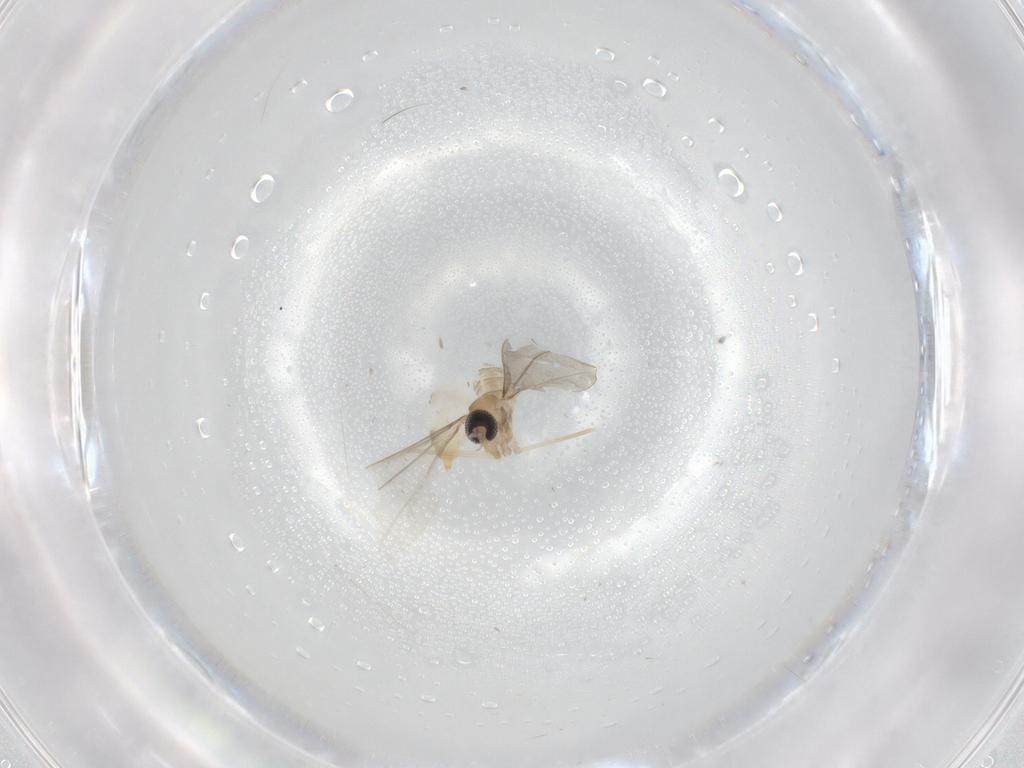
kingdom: Animalia
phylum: Arthropoda
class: Insecta
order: Diptera
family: Cecidomyiidae
